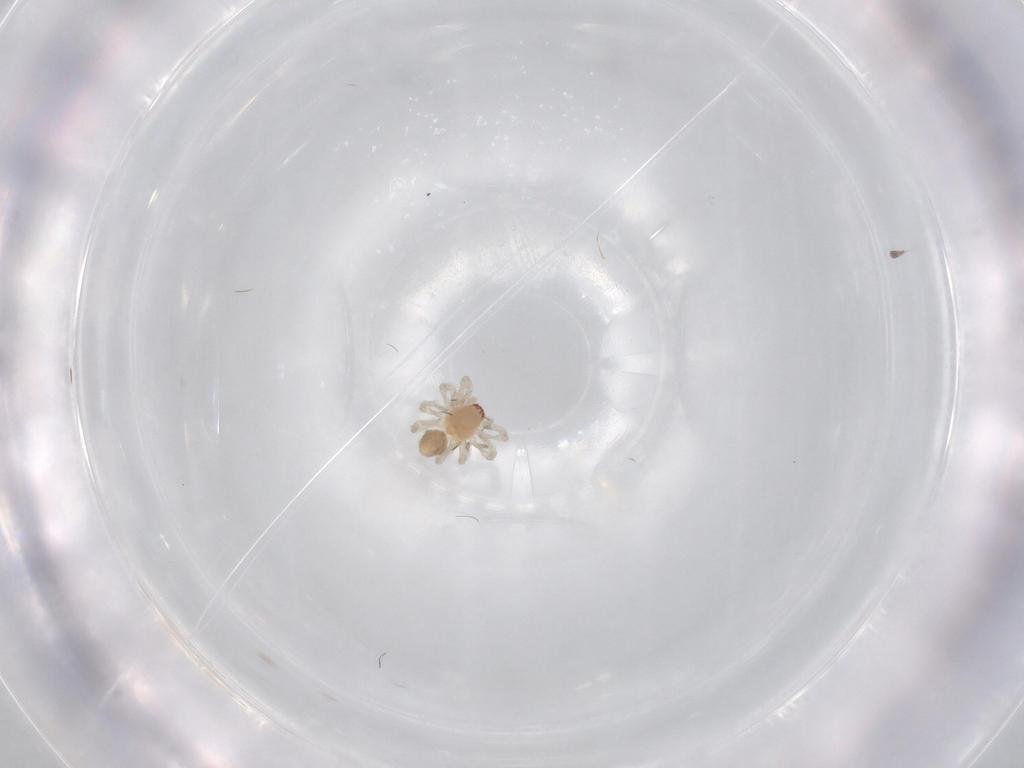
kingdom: Animalia
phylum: Arthropoda
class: Arachnida
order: Araneae
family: Dictynidae
